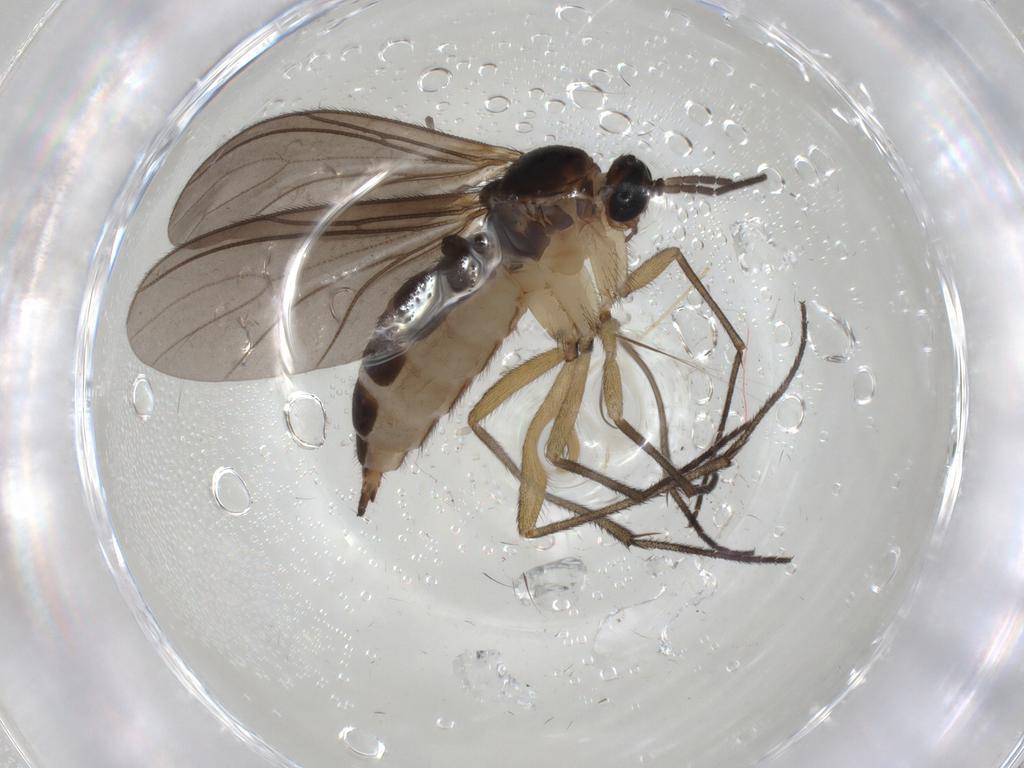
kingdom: Animalia
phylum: Arthropoda
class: Insecta
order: Diptera
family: Sciaridae
